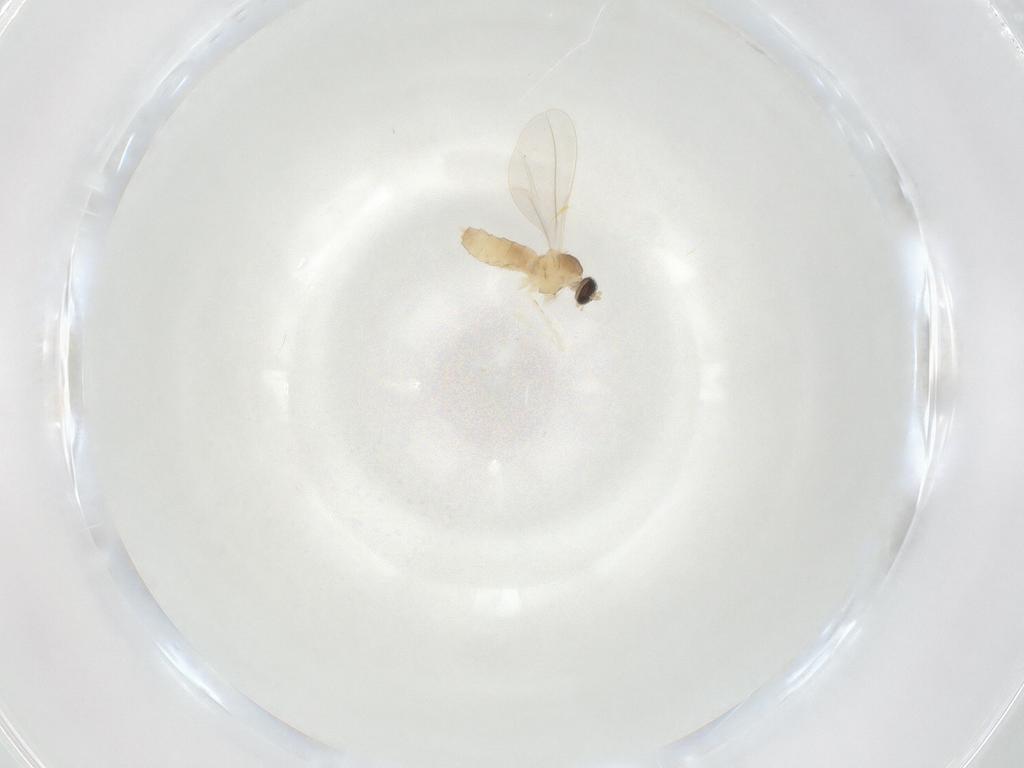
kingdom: Animalia
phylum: Arthropoda
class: Insecta
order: Diptera
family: Cecidomyiidae
